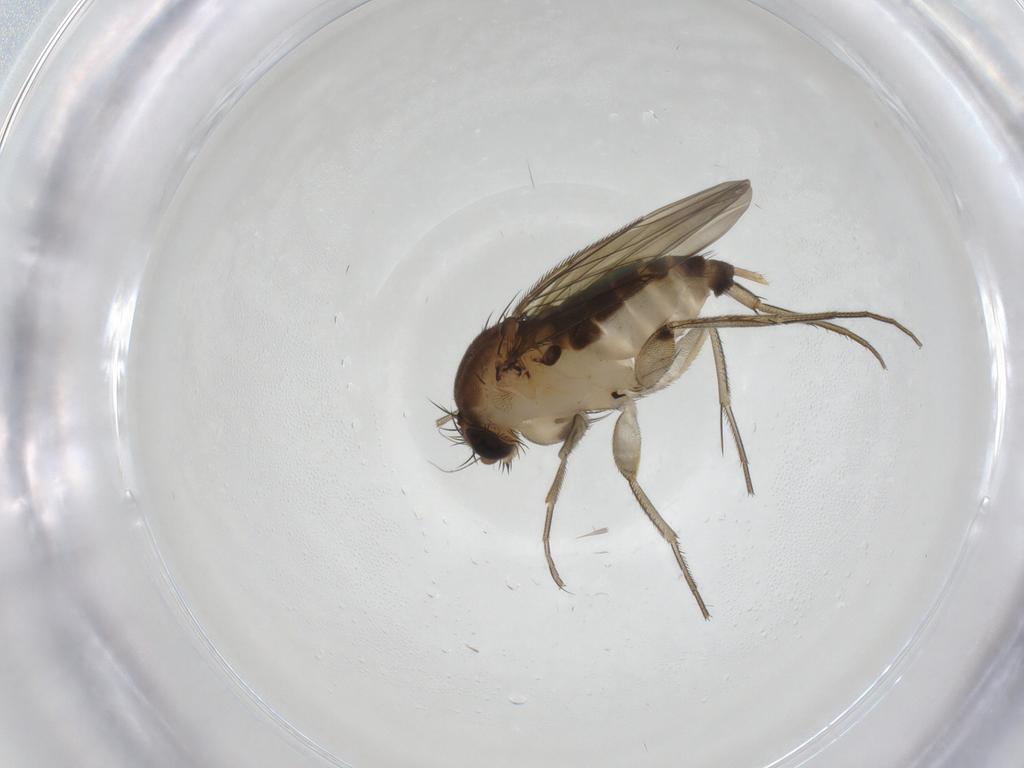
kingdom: Animalia
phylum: Arthropoda
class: Insecta
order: Diptera
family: Phoridae
